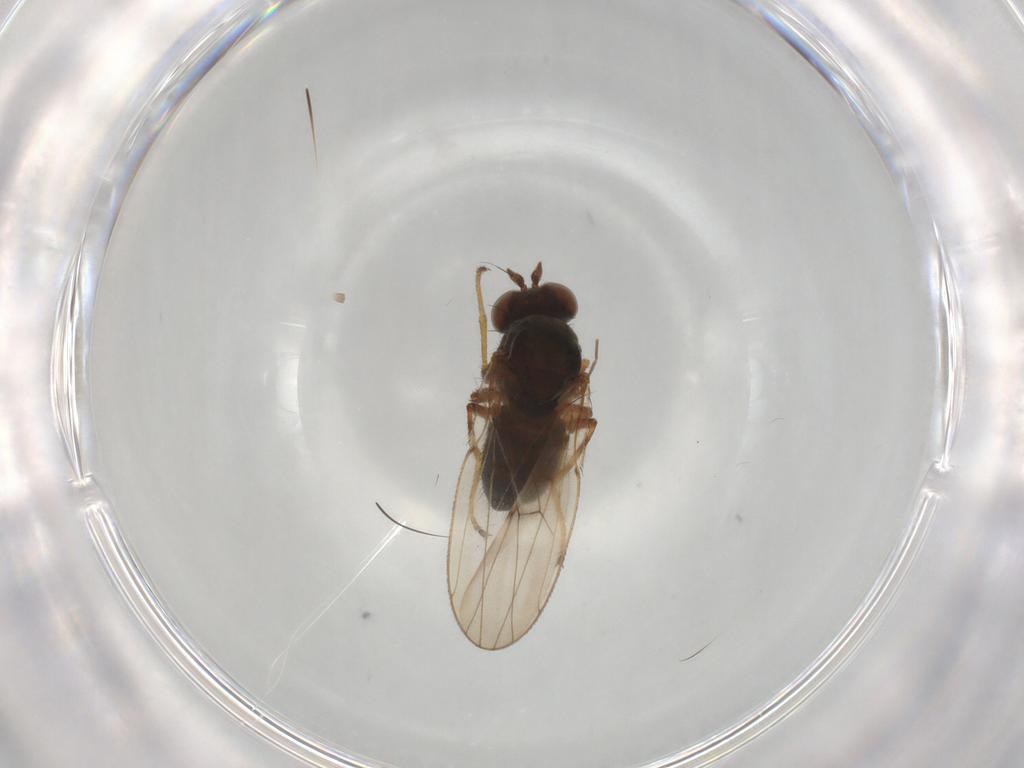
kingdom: Animalia
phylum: Arthropoda
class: Insecta
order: Diptera
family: Ephydridae
